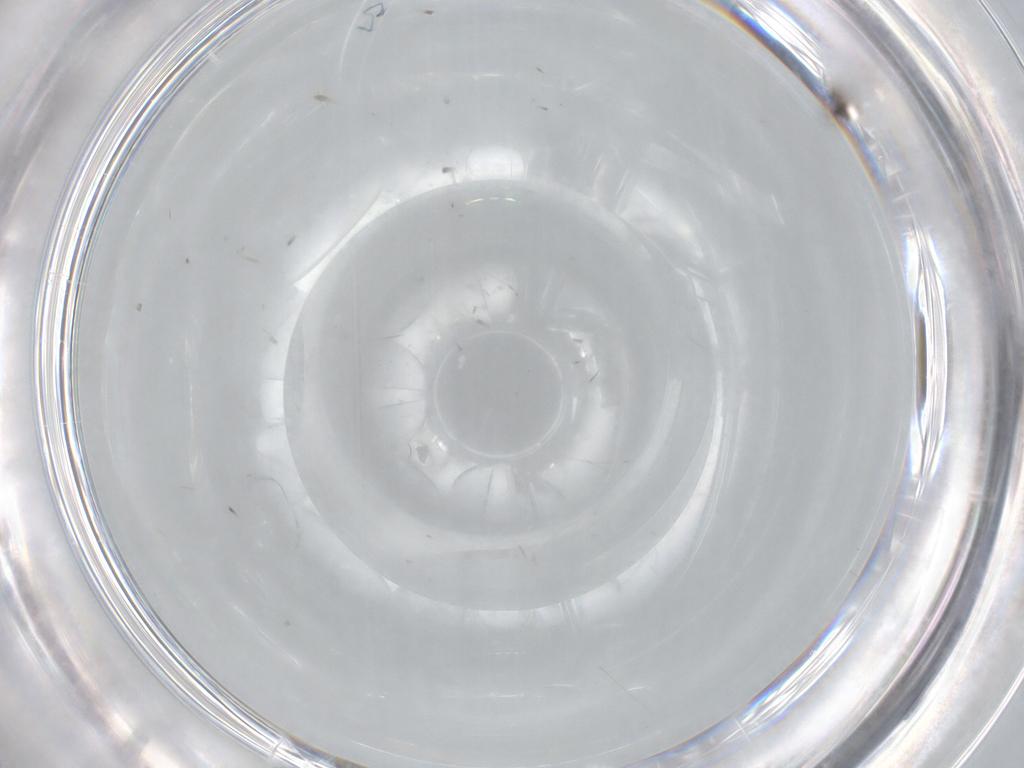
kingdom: Animalia
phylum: Arthropoda
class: Insecta
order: Diptera
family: Cecidomyiidae
